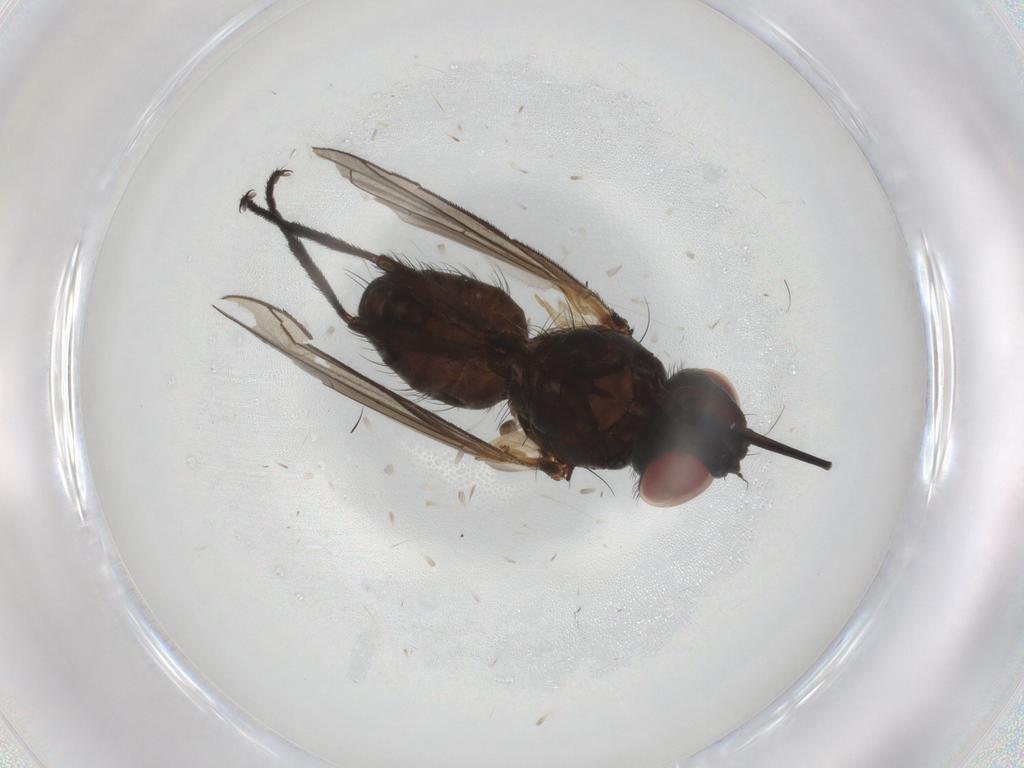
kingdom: Animalia
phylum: Arthropoda
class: Insecta
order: Diptera
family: Tachinidae
